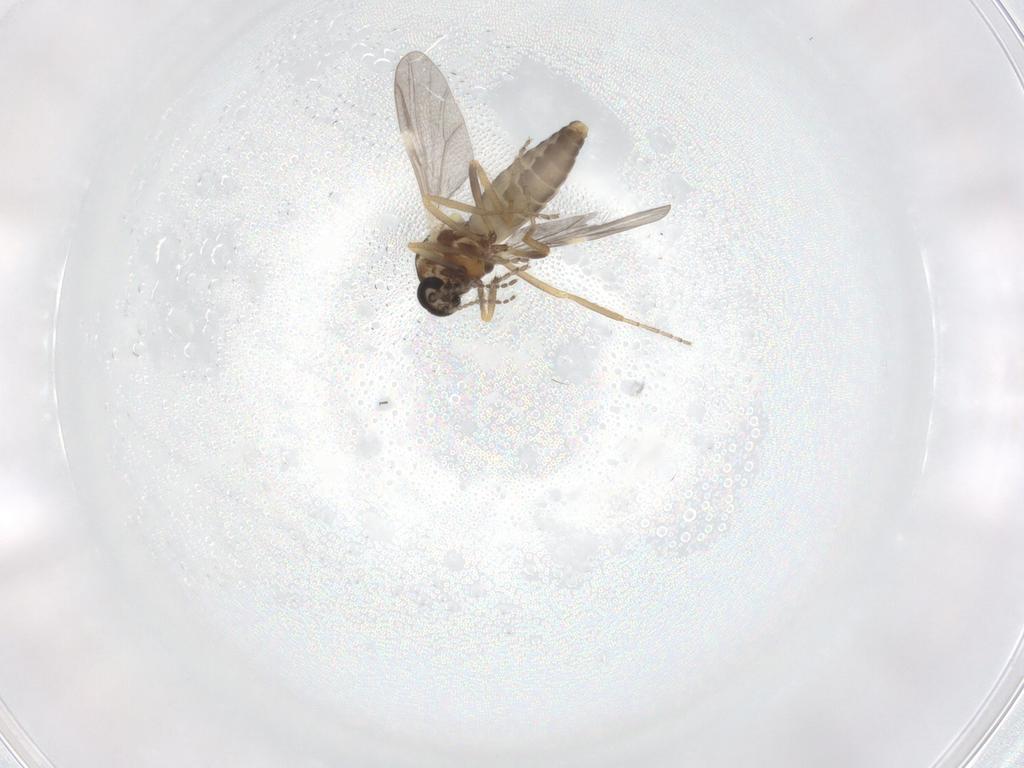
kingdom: Animalia
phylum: Arthropoda
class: Insecta
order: Diptera
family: Ceratopogonidae
